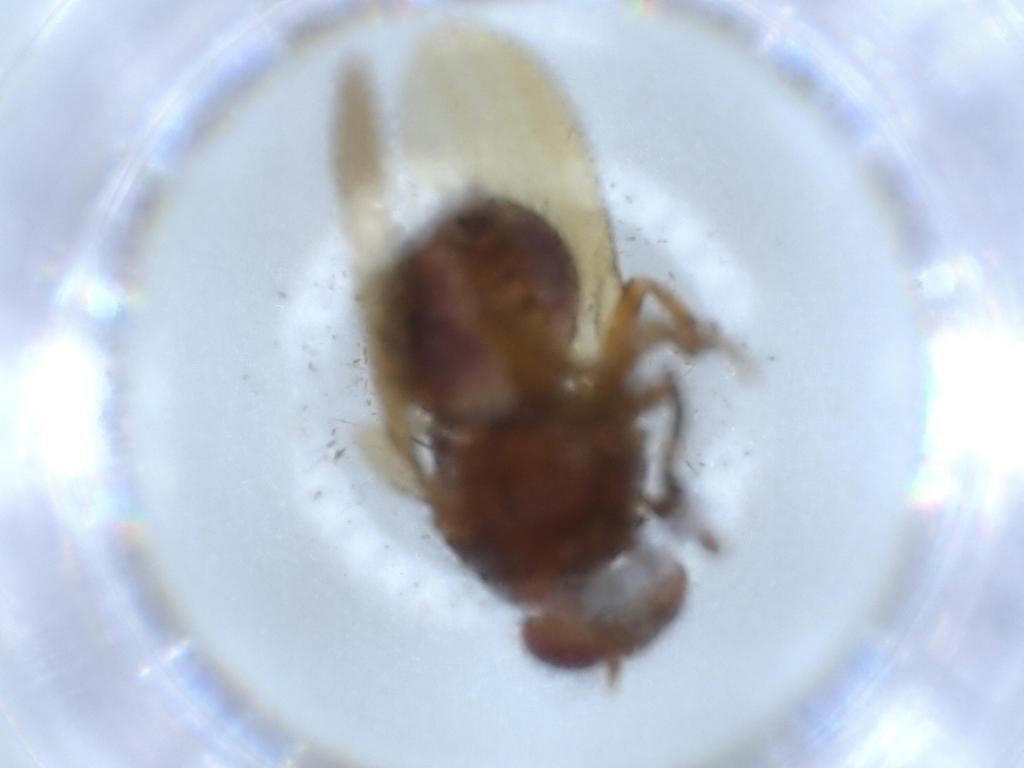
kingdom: Animalia
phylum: Arthropoda
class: Insecta
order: Diptera
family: Cecidomyiidae
